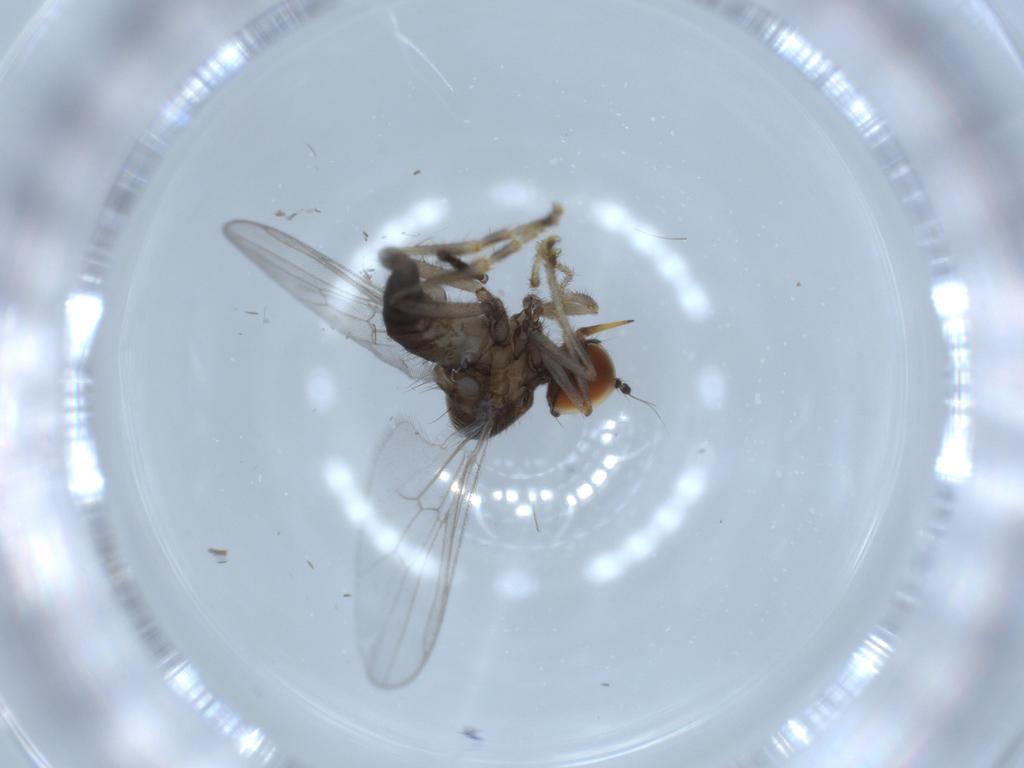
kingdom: Animalia
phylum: Arthropoda
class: Insecta
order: Diptera
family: Hybotidae
